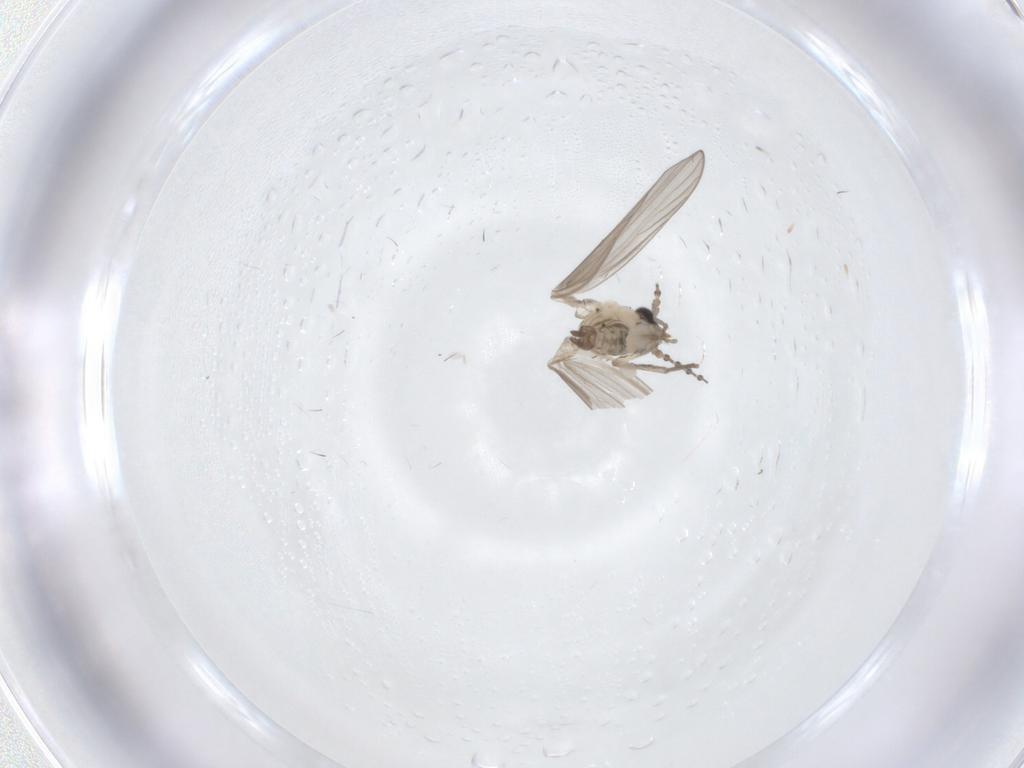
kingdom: Animalia
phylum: Arthropoda
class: Insecta
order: Diptera
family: Psychodidae
